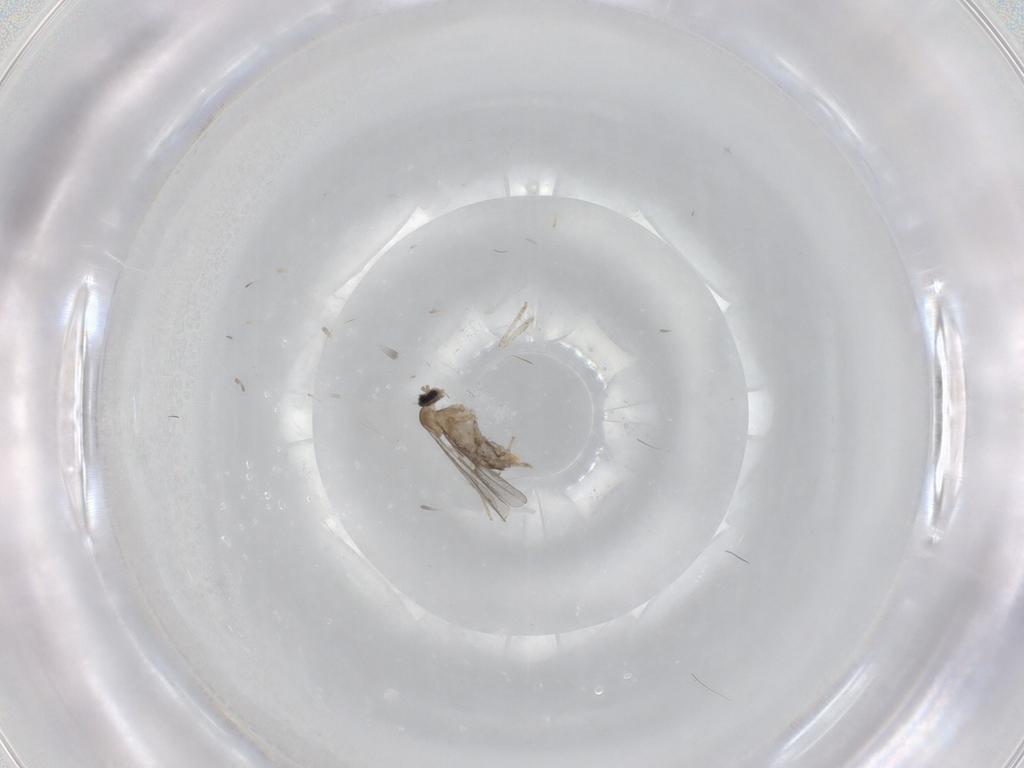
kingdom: Animalia
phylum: Arthropoda
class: Insecta
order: Diptera
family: Cecidomyiidae
